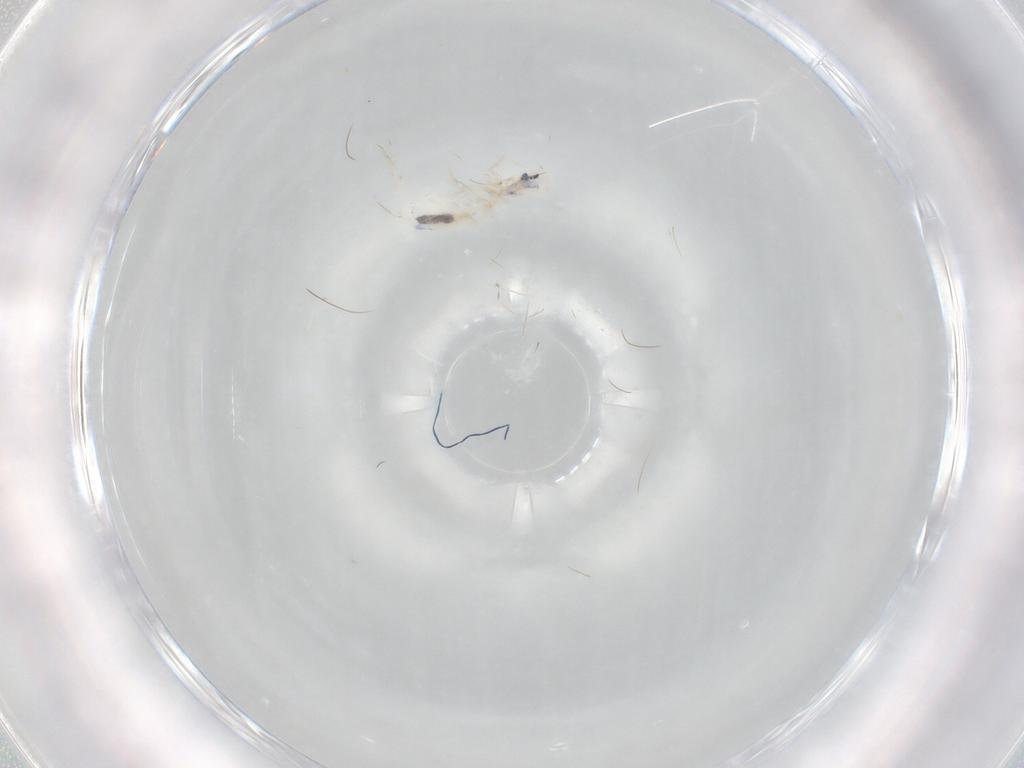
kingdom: Animalia
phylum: Arthropoda
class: Collembola
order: Entomobryomorpha
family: Entomobryidae
